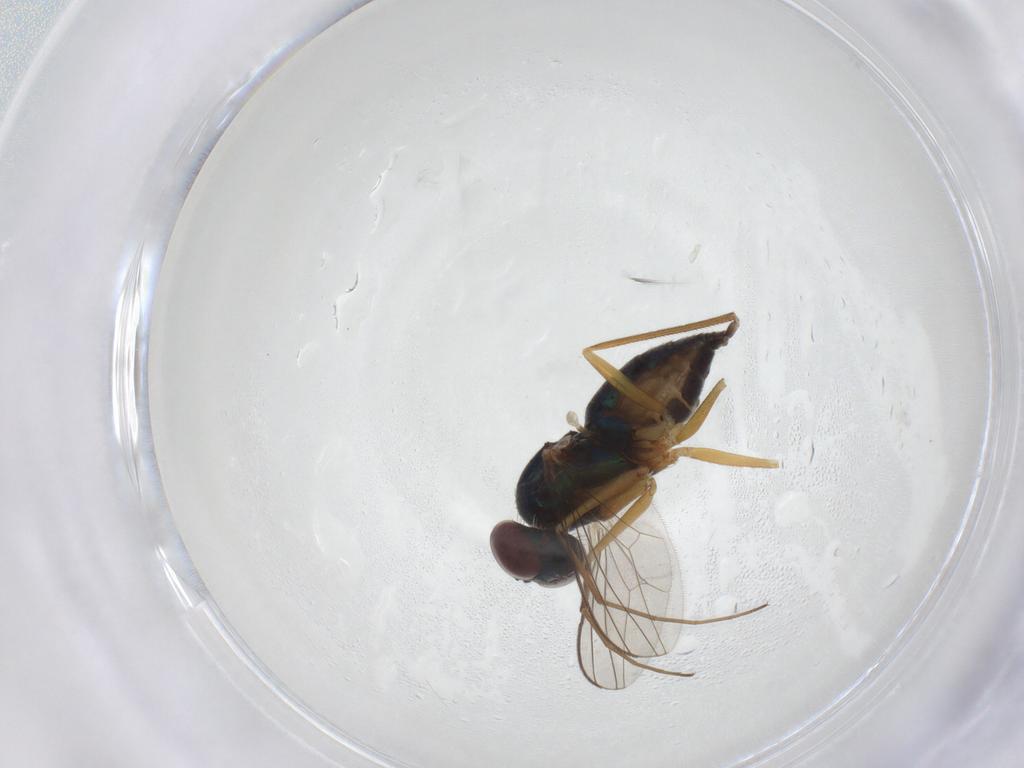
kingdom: Animalia
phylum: Arthropoda
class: Insecta
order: Diptera
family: Dolichopodidae
